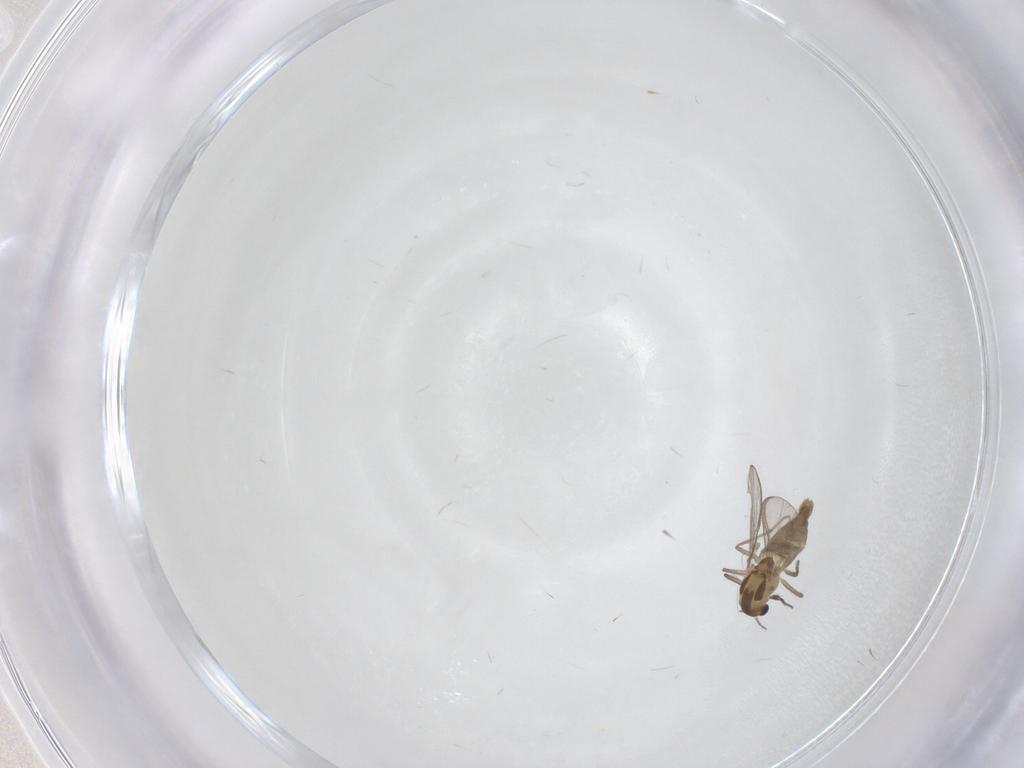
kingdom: Animalia
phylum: Arthropoda
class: Insecta
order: Diptera
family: Chironomidae
